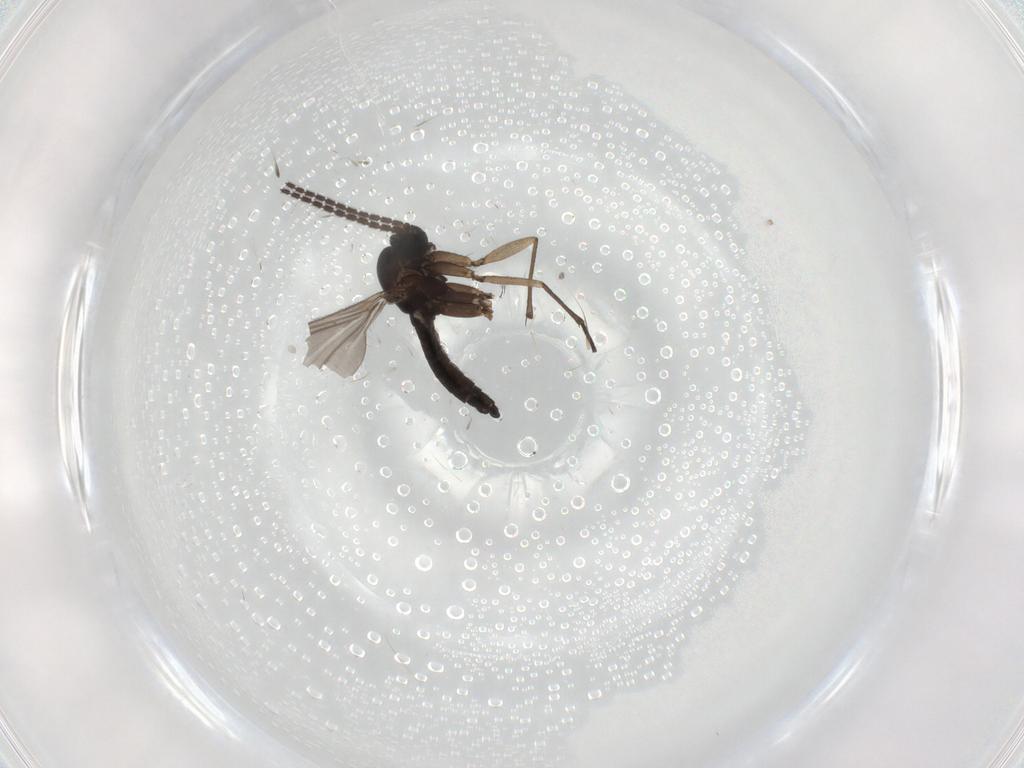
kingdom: Animalia
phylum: Arthropoda
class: Insecta
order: Diptera
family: Sciaridae
